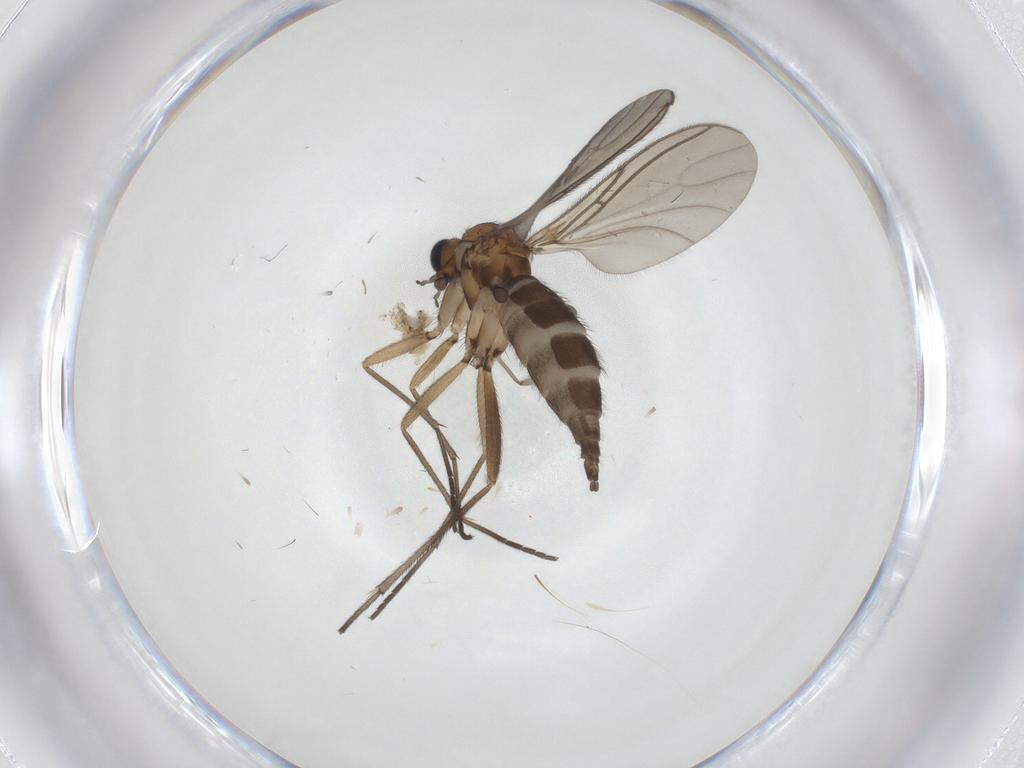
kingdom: Animalia
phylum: Arthropoda
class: Insecta
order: Diptera
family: Sciaridae
